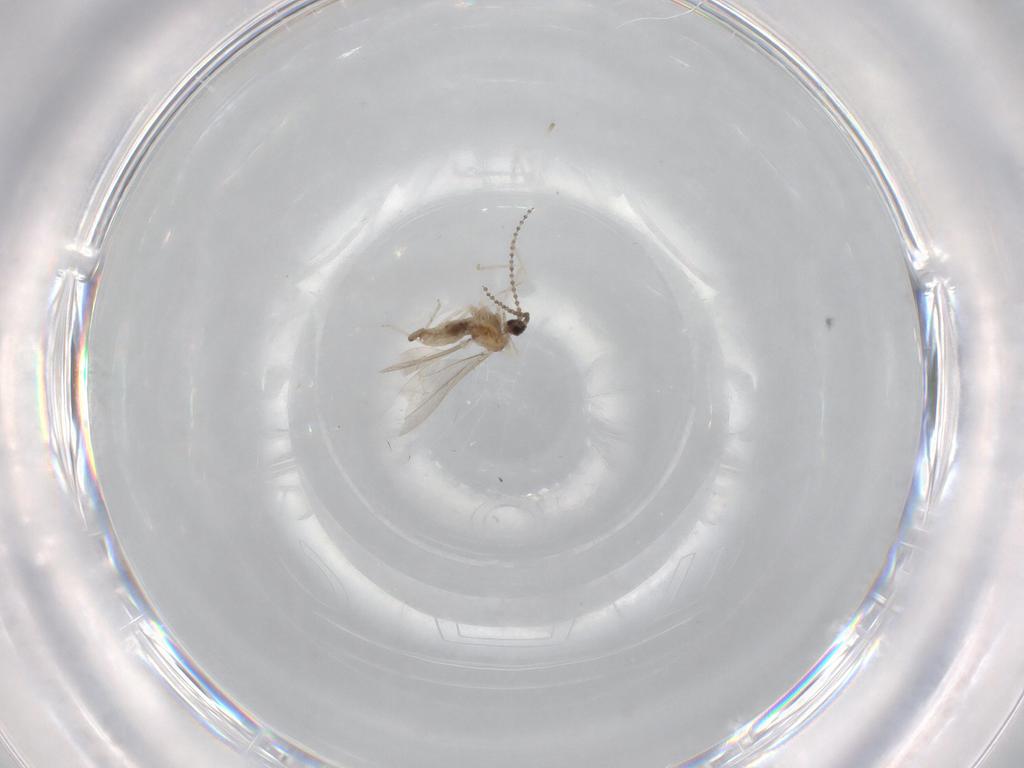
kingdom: Animalia
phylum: Arthropoda
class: Insecta
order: Diptera
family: Cecidomyiidae
